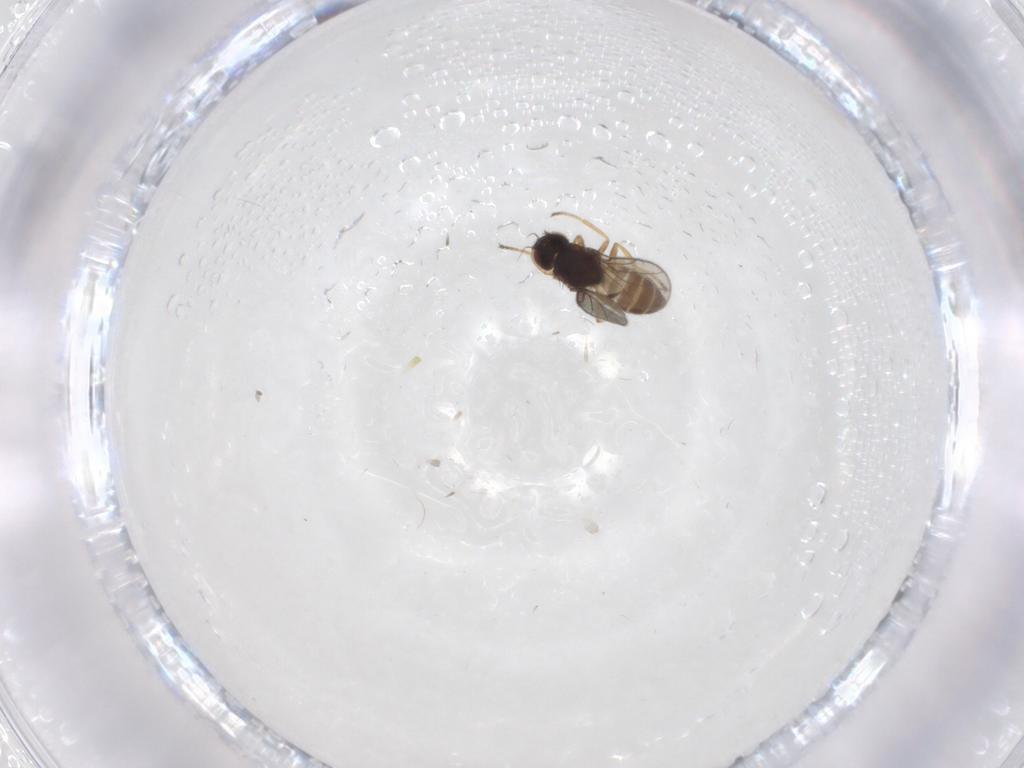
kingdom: Animalia
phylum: Arthropoda
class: Insecta
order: Diptera
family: Chloropidae
